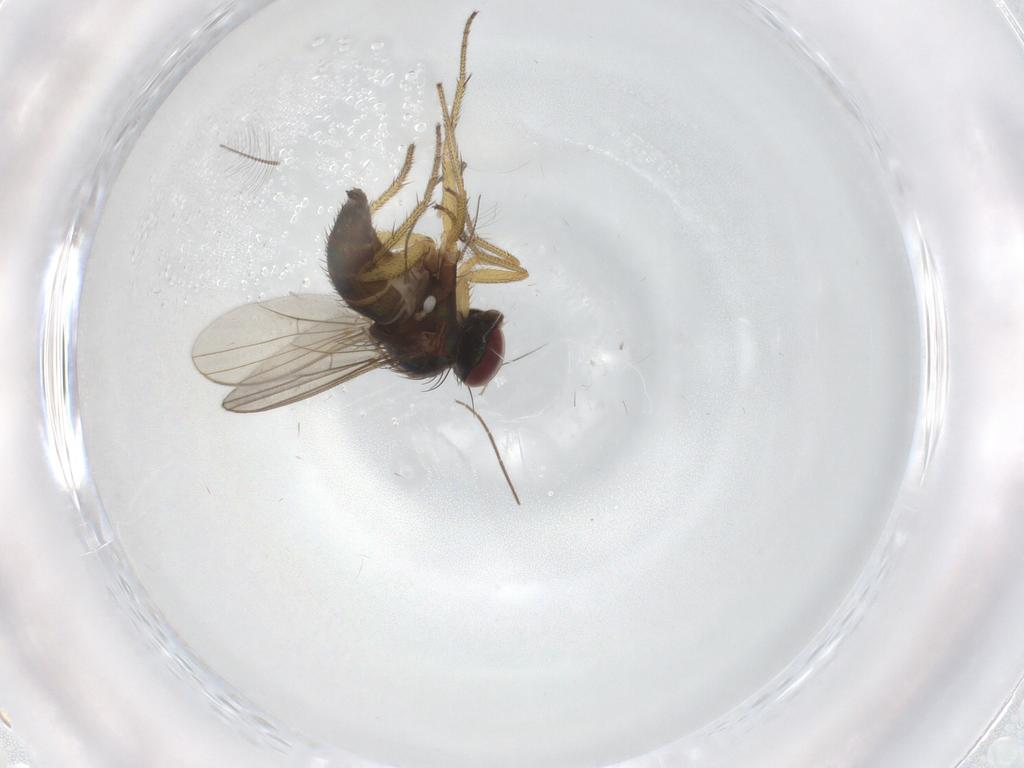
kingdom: Animalia
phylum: Arthropoda
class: Insecta
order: Diptera
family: Chironomidae
